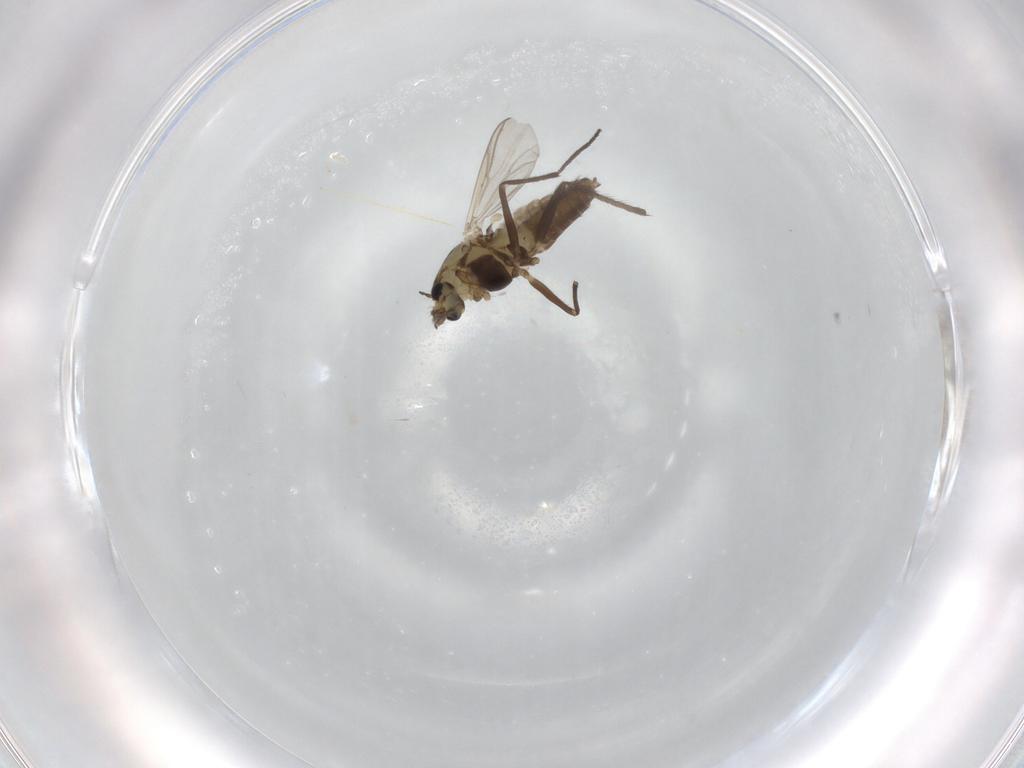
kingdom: Animalia
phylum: Arthropoda
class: Insecta
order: Diptera
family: Chironomidae
